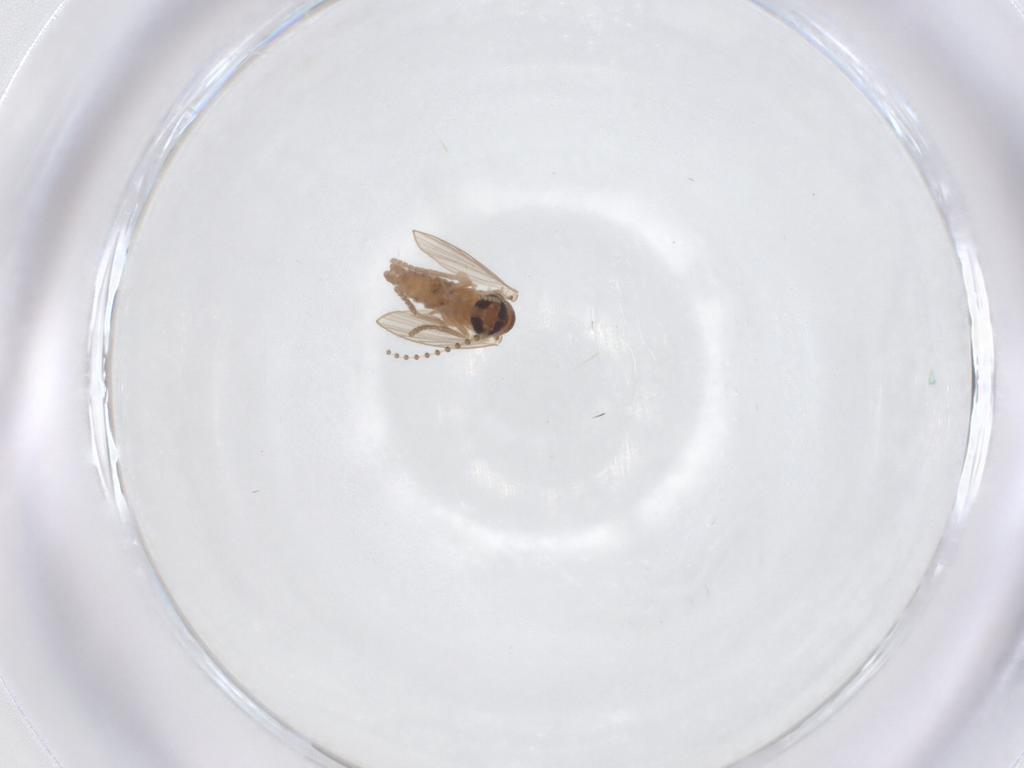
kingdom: Animalia
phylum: Arthropoda
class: Insecta
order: Diptera
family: Psychodidae
